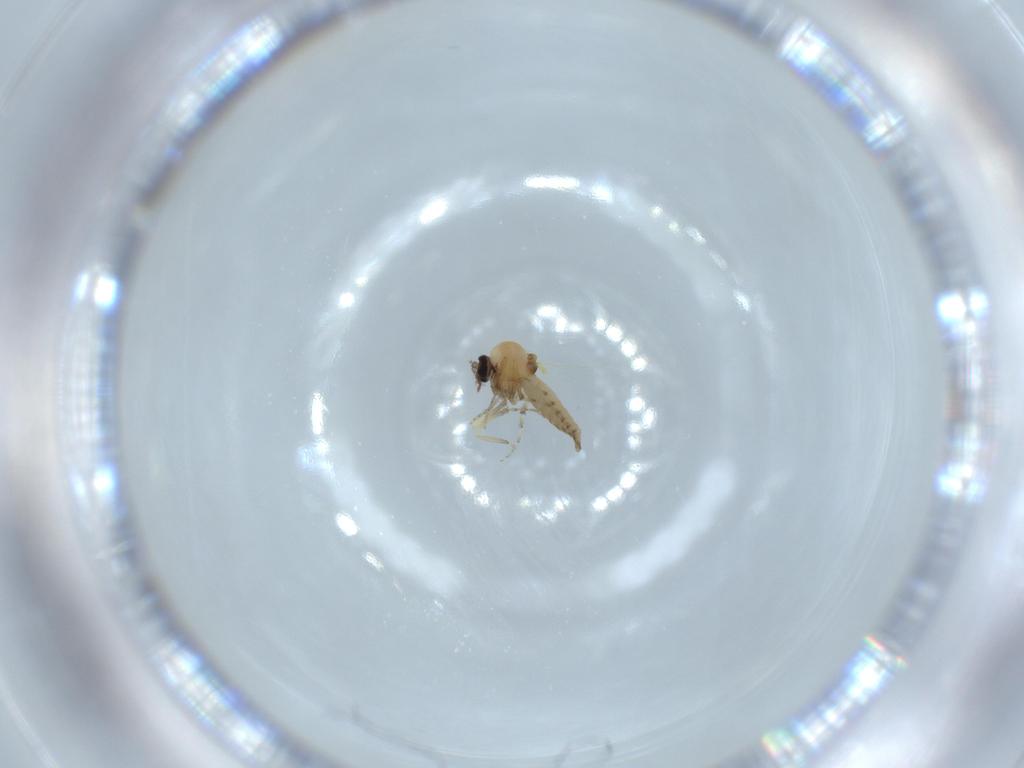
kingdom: Animalia
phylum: Arthropoda
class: Insecta
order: Diptera
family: Ceratopogonidae
